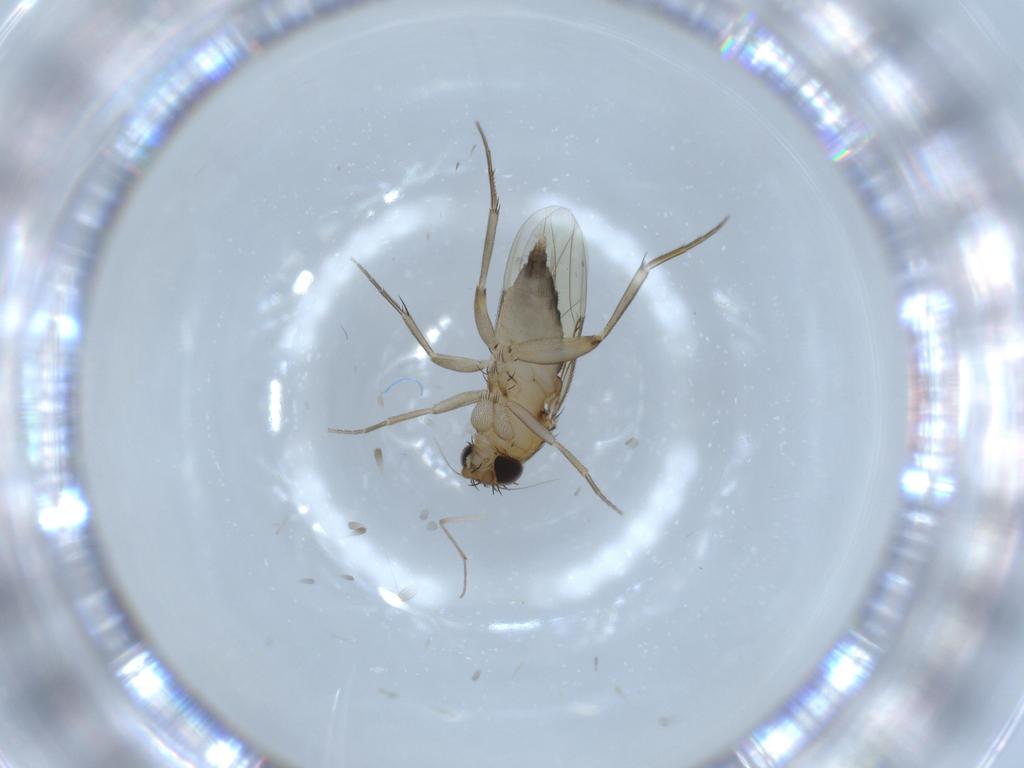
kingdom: Animalia
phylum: Arthropoda
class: Insecta
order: Diptera
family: Phoridae
